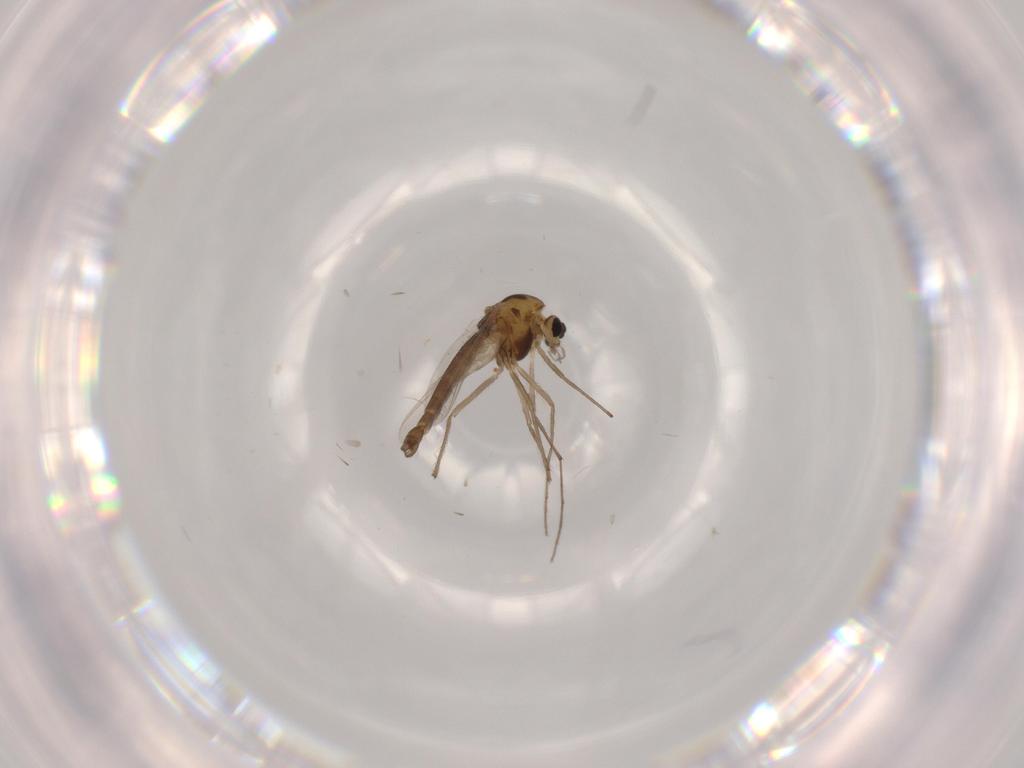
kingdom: Animalia
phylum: Arthropoda
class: Insecta
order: Diptera
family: Chironomidae
